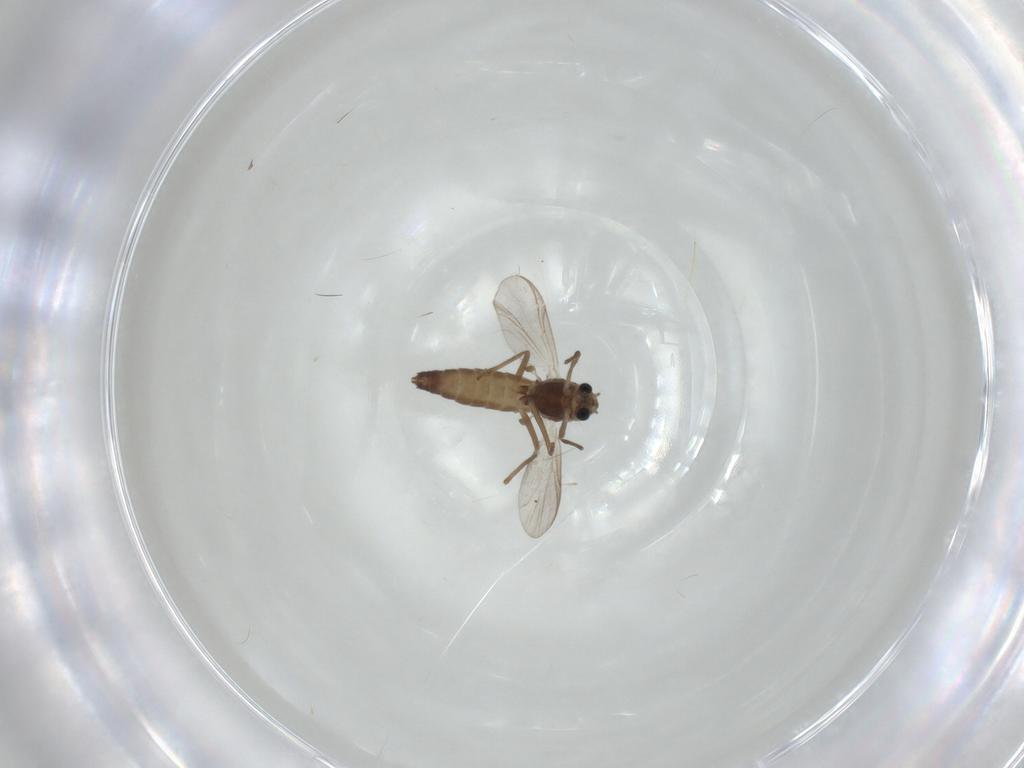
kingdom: Animalia
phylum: Arthropoda
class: Insecta
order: Diptera
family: Chironomidae
